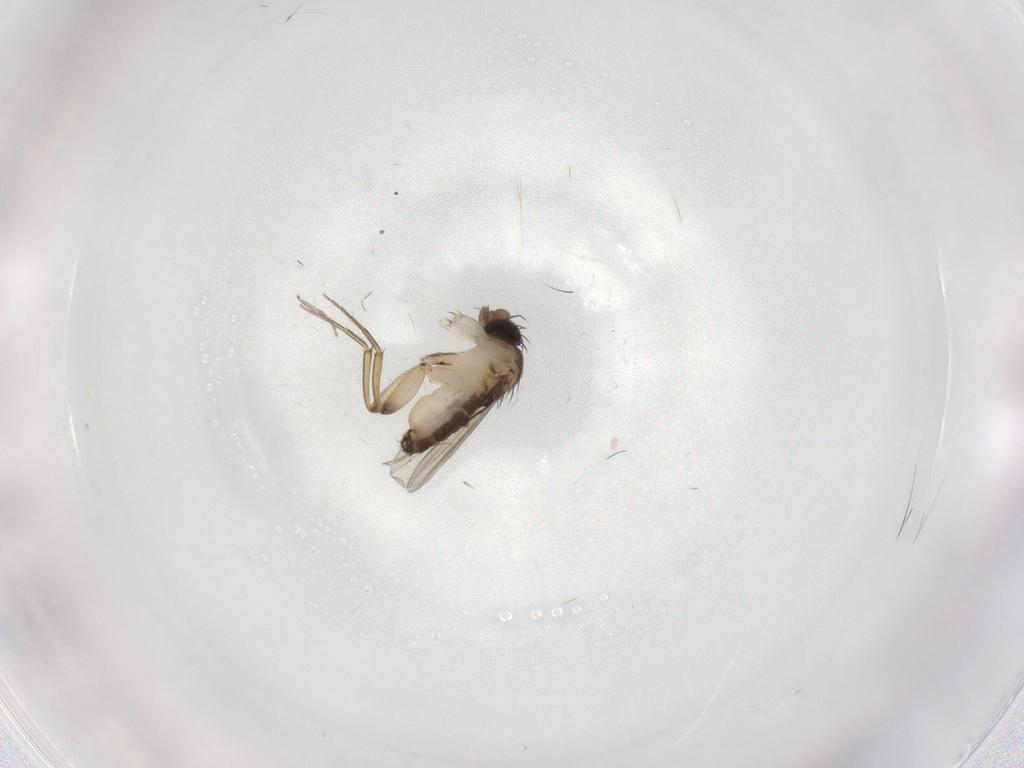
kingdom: Animalia
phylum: Arthropoda
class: Insecta
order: Diptera
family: Phoridae
